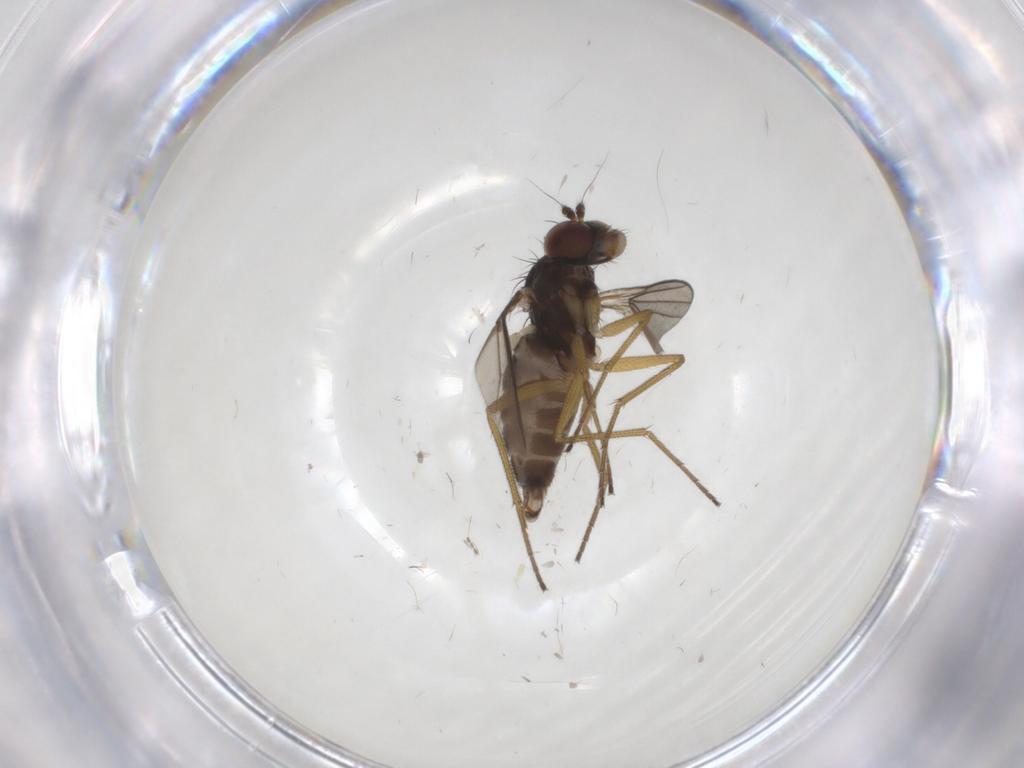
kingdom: Animalia
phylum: Arthropoda
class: Insecta
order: Diptera
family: Dolichopodidae
